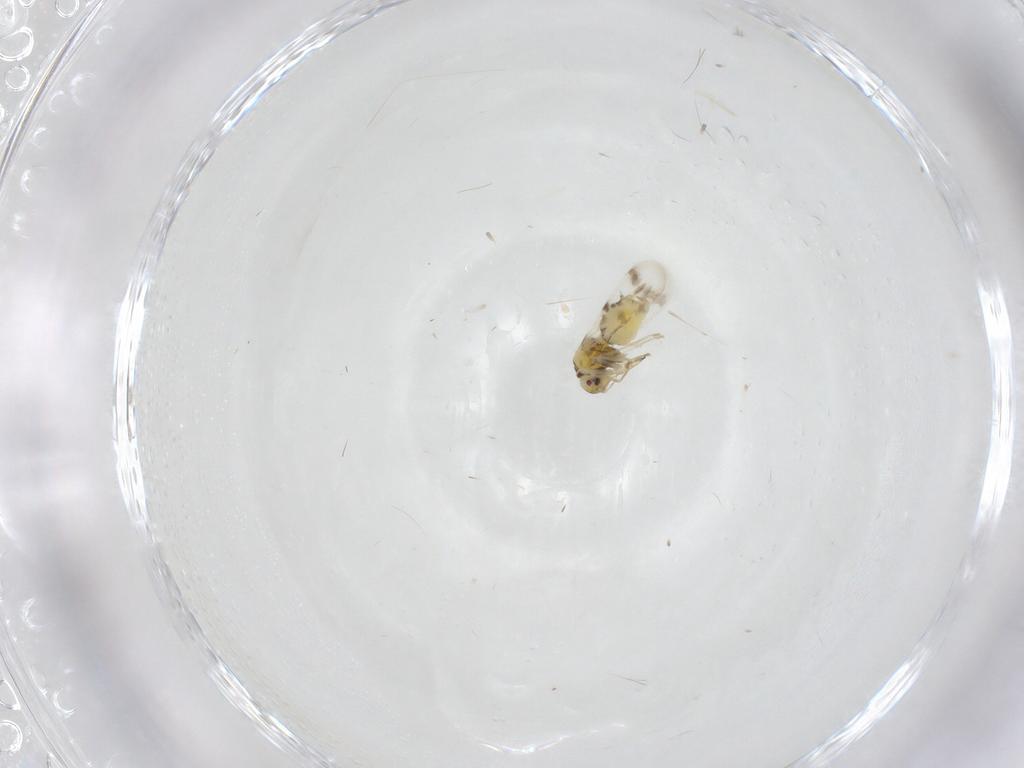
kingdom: Animalia
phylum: Arthropoda
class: Insecta
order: Hemiptera
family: Aleyrodidae
